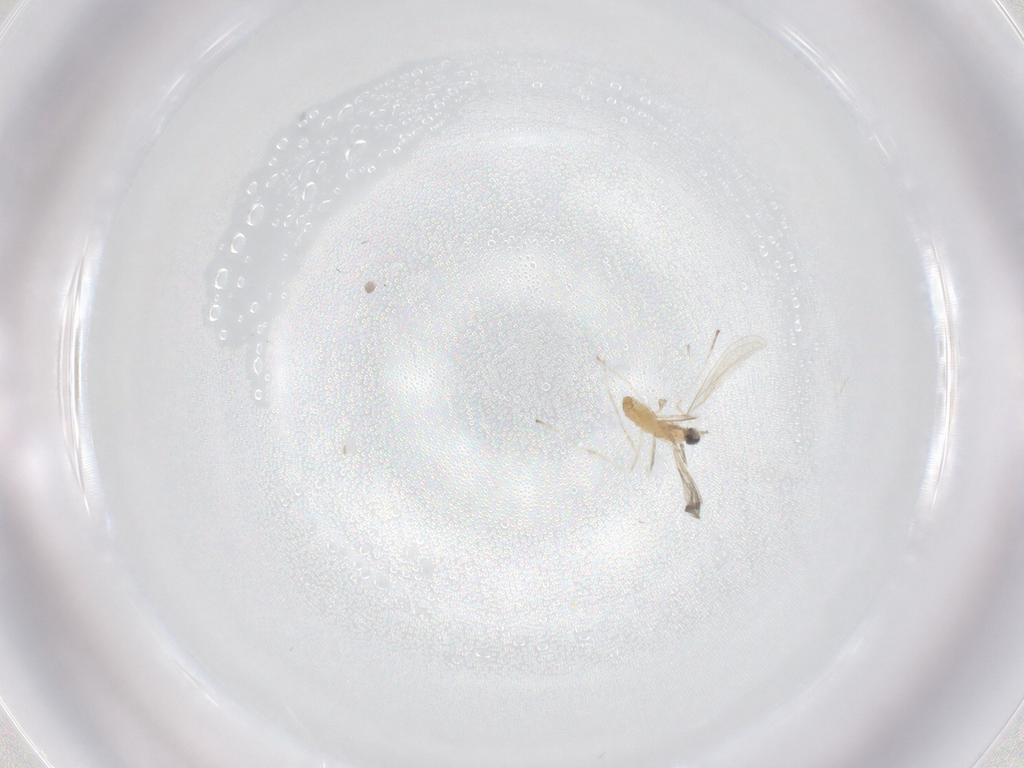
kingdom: Animalia
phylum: Arthropoda
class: Insecta
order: Diptera
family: Cecidomyiidae
